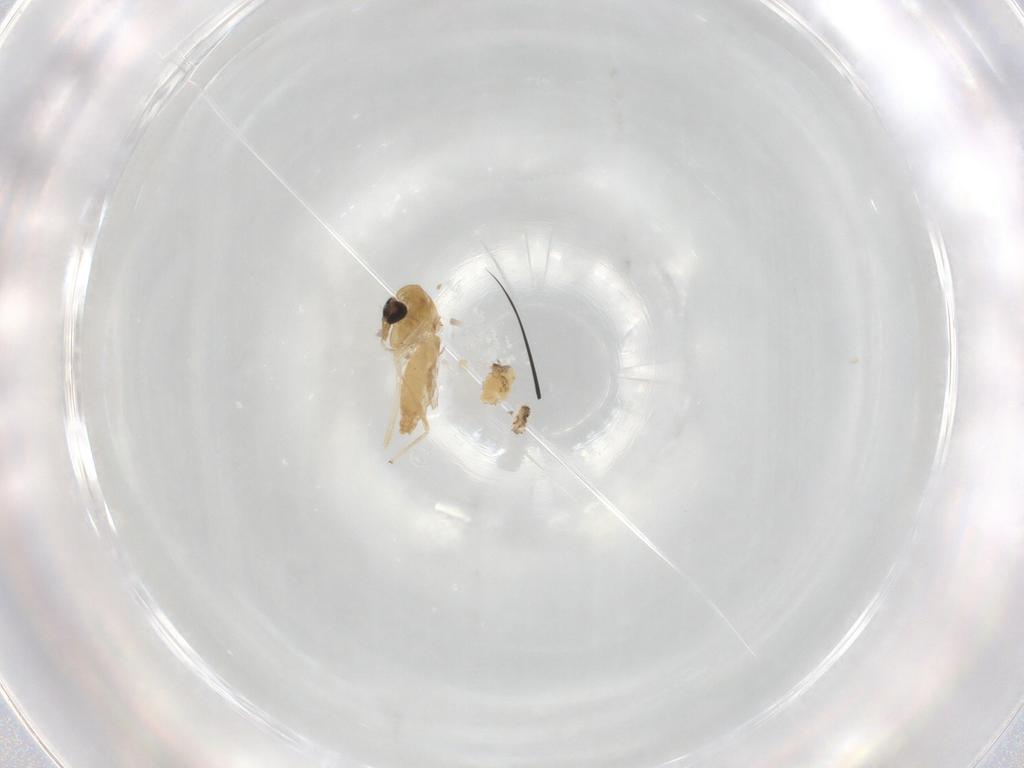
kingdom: Animalia
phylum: Arthropoda
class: Insecta
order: Diptera
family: Chironomidae
